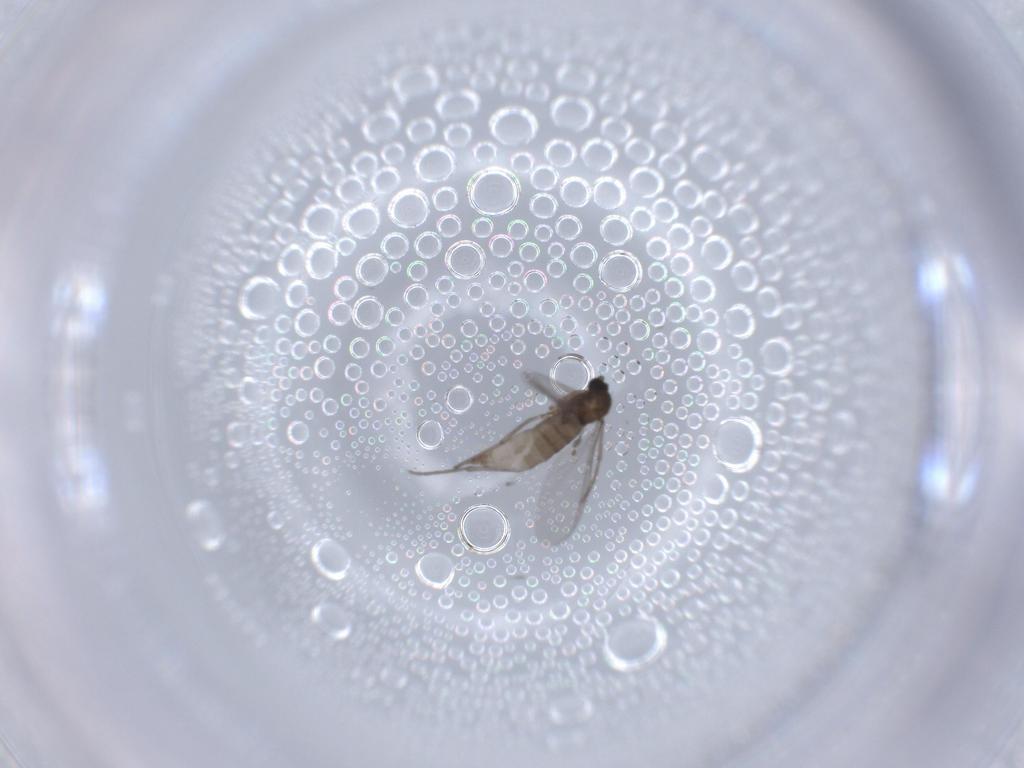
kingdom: Animalia
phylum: Arthropoda
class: Insecta
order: Diptera
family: Sciaridae
